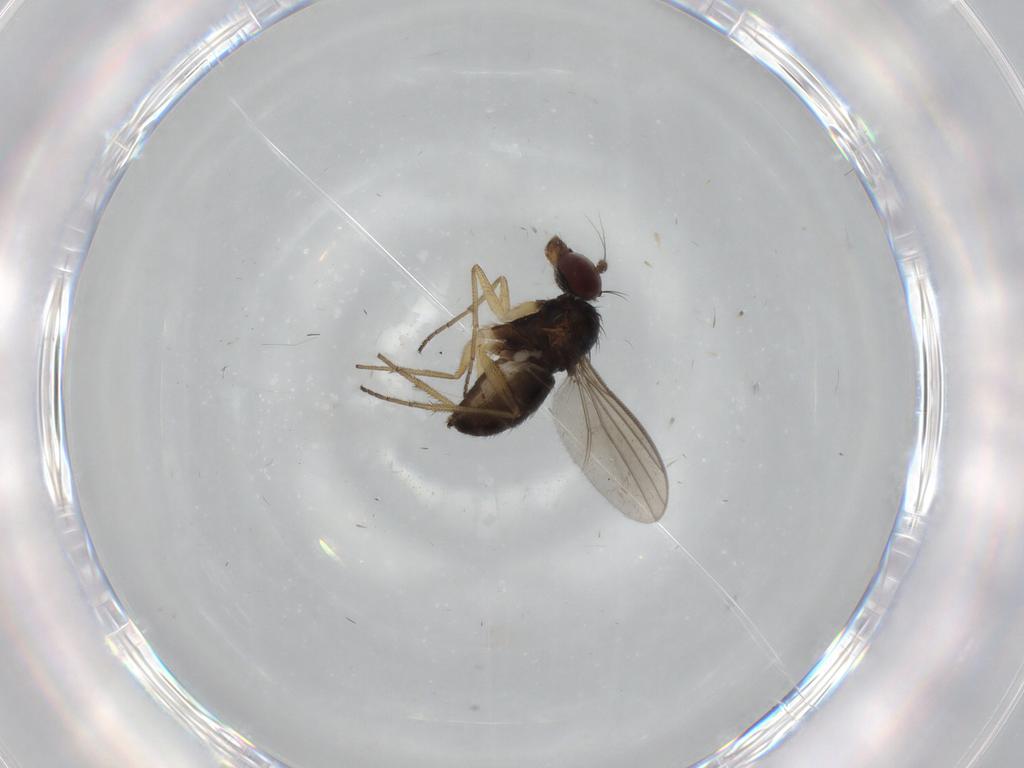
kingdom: Animalia
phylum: Arthropoda
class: Insecta
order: Diptera
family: Dolichopodidae
